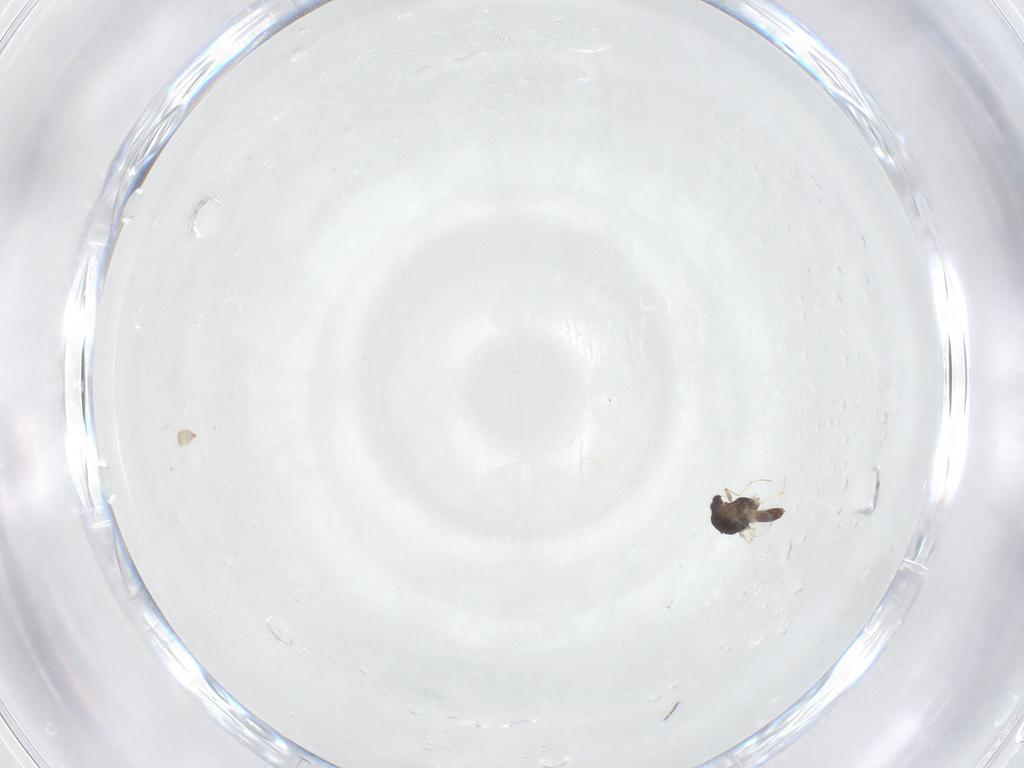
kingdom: Animalia
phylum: Arthropoda
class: Insecta
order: Diptera
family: Chironomidae
